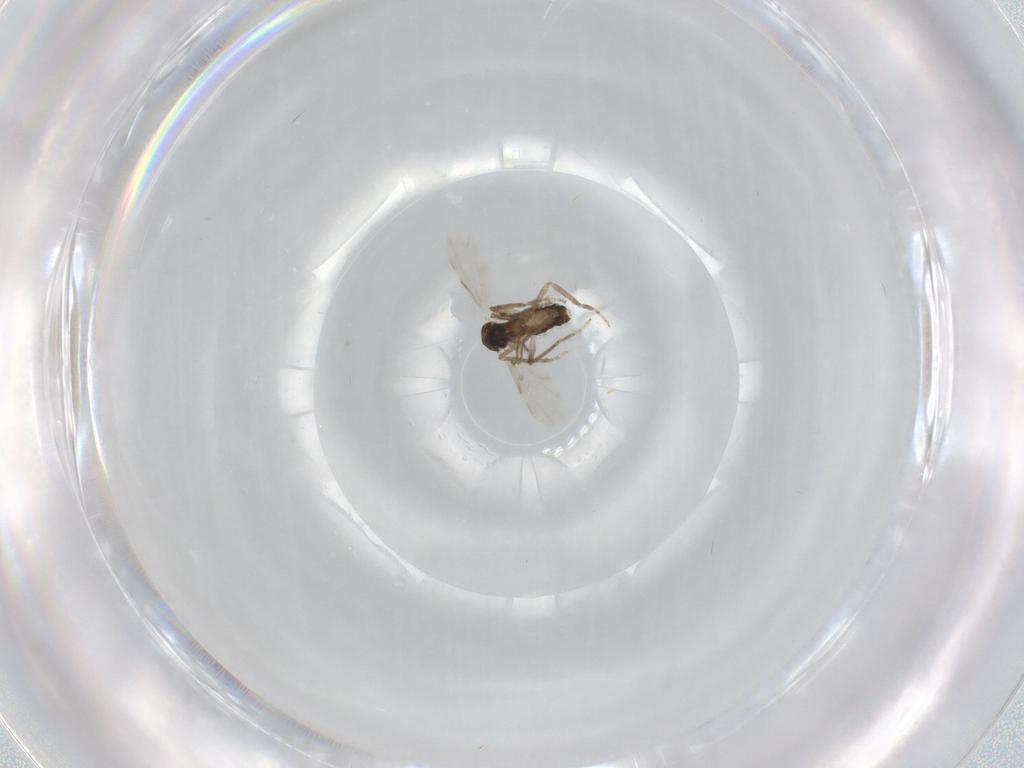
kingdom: Animalia
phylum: Arthropoda
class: Insecta
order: Diptera
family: Ceratopogonidae
